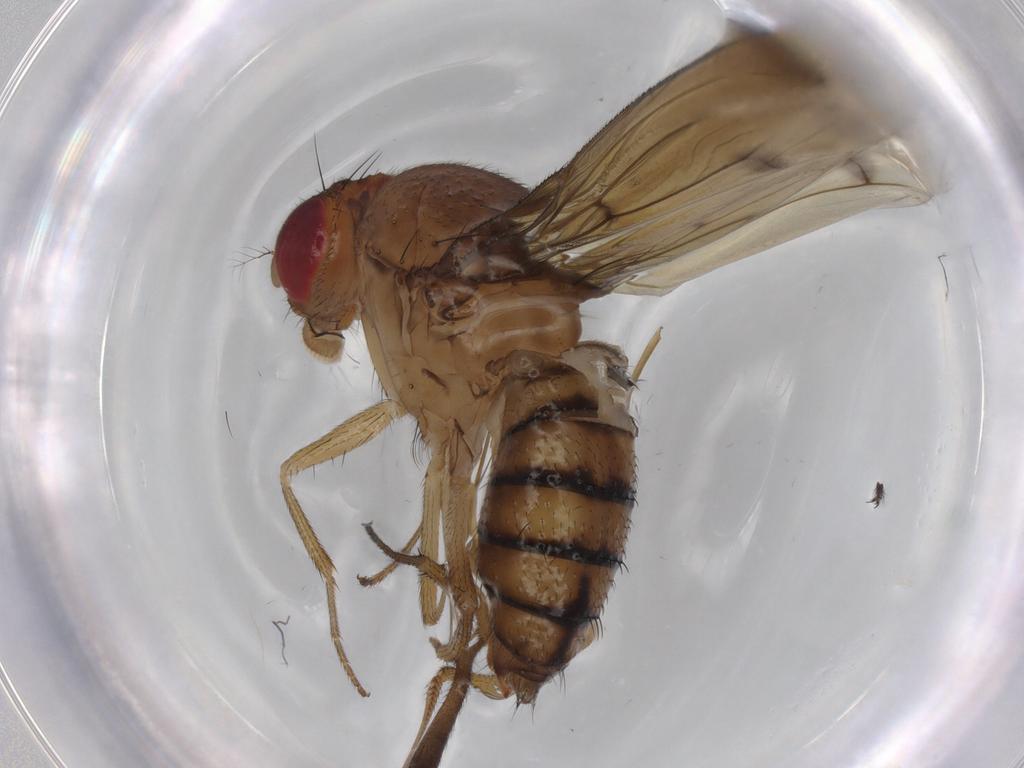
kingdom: Animalia
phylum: Arthropoda
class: Insecta
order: Diptera
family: Drosophilidae
